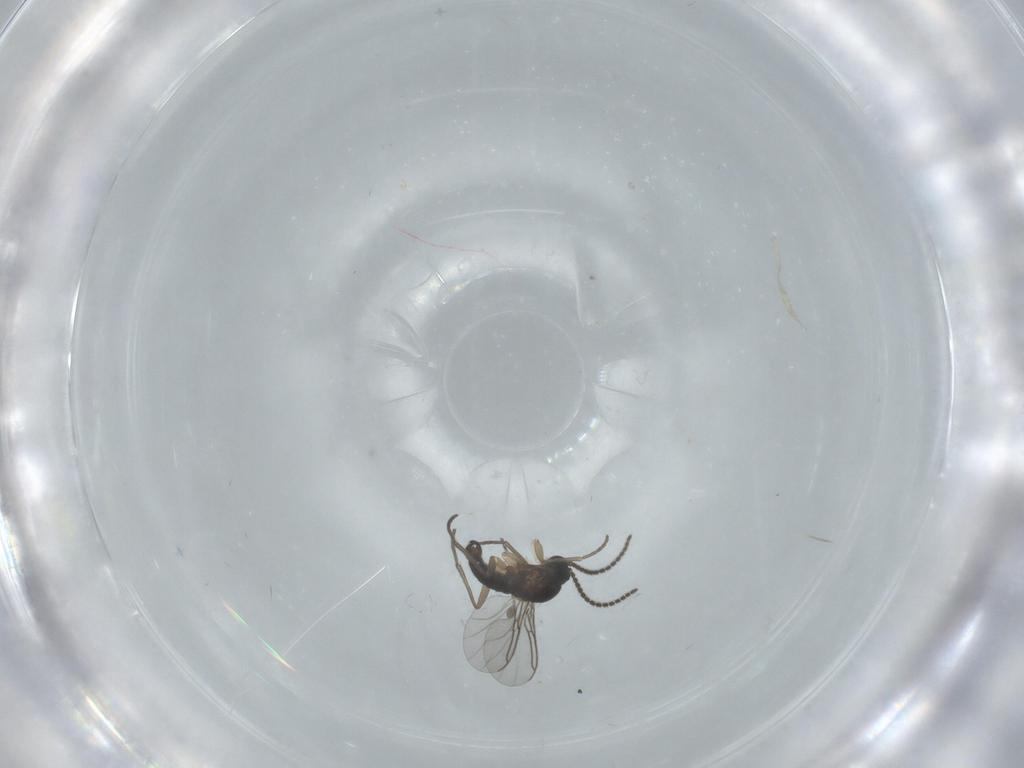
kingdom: Animalia
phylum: Arthropoda
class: Insecta
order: Diptera
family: Sciaridae
